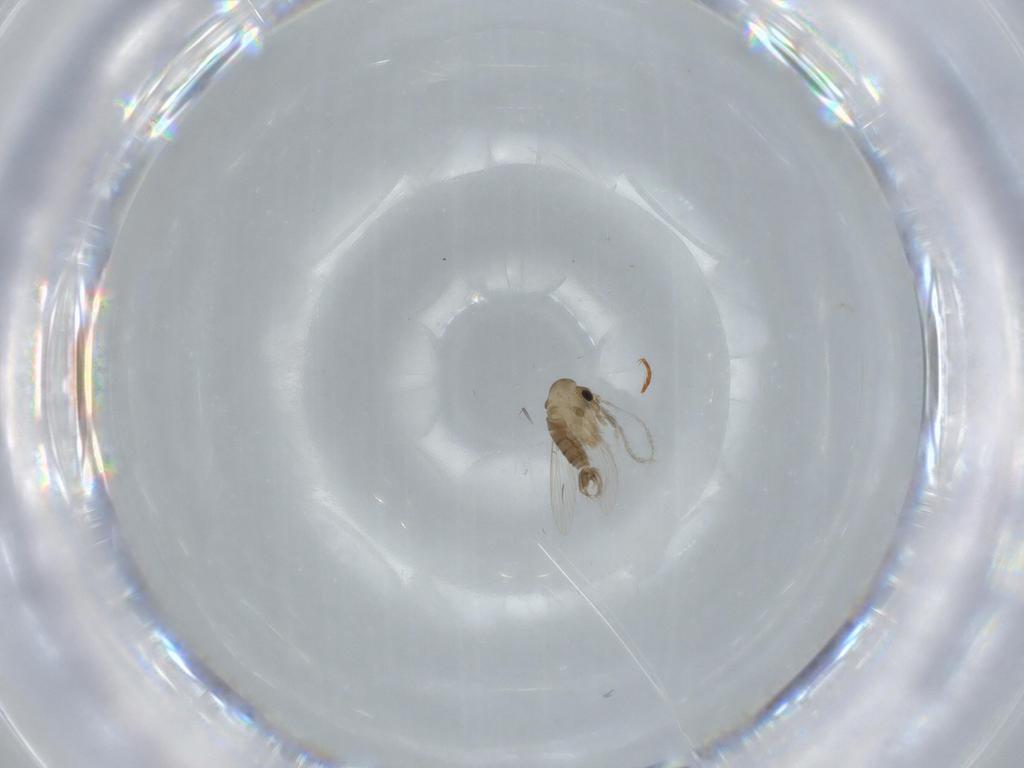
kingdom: Animalia
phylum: Arthropoda
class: Insecta
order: Diptera
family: Psychodidae
